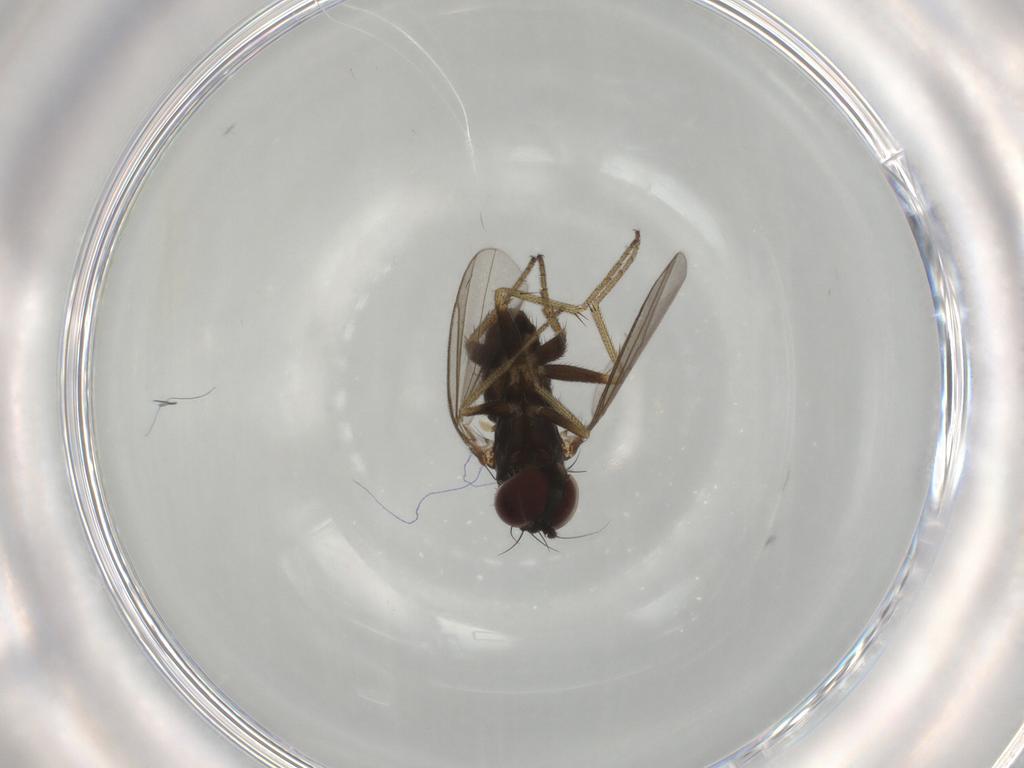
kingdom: Animalia
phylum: Arthropoda
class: Insecta
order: Diptera
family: Dolichopodidae
